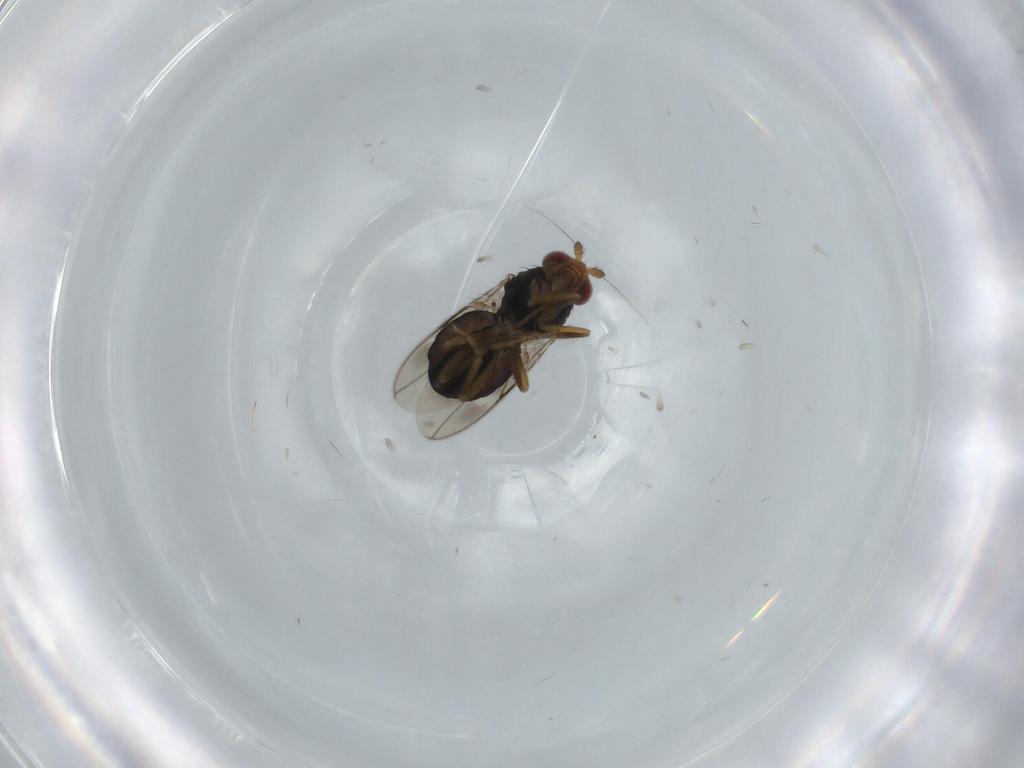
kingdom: Animalia
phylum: Arthropoda
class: Insecta
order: Diptera
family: Sphaeroceridae
